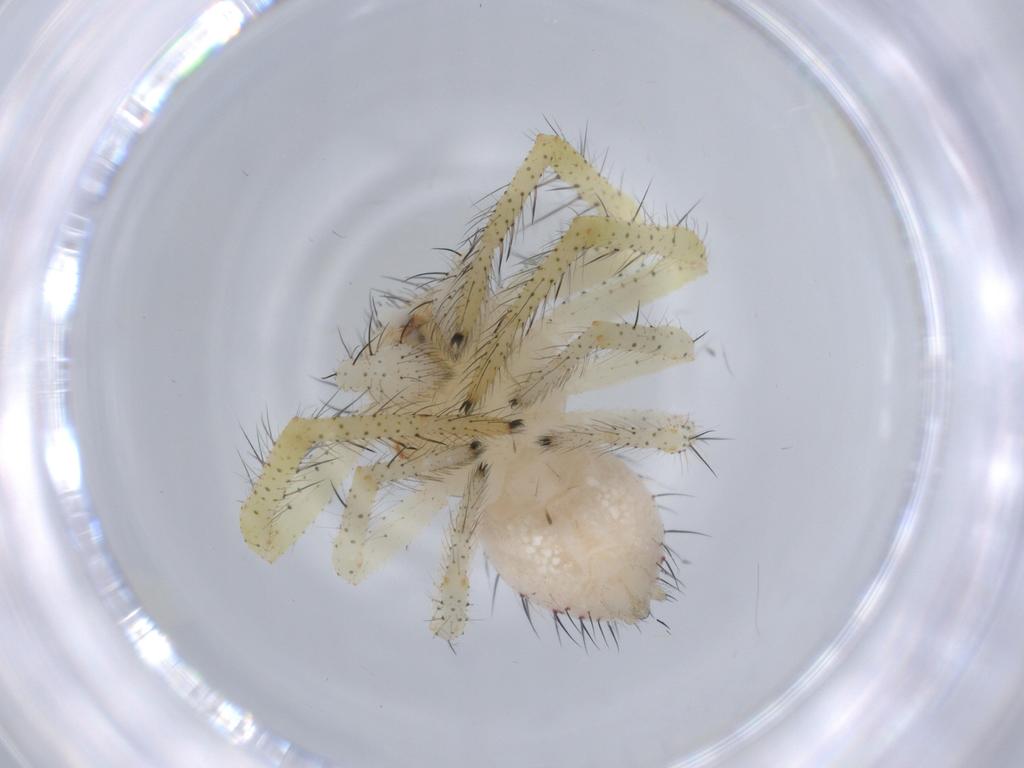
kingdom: Animalia
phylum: Arthropoda
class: Arachnida
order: Araneae
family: Thomisidae
